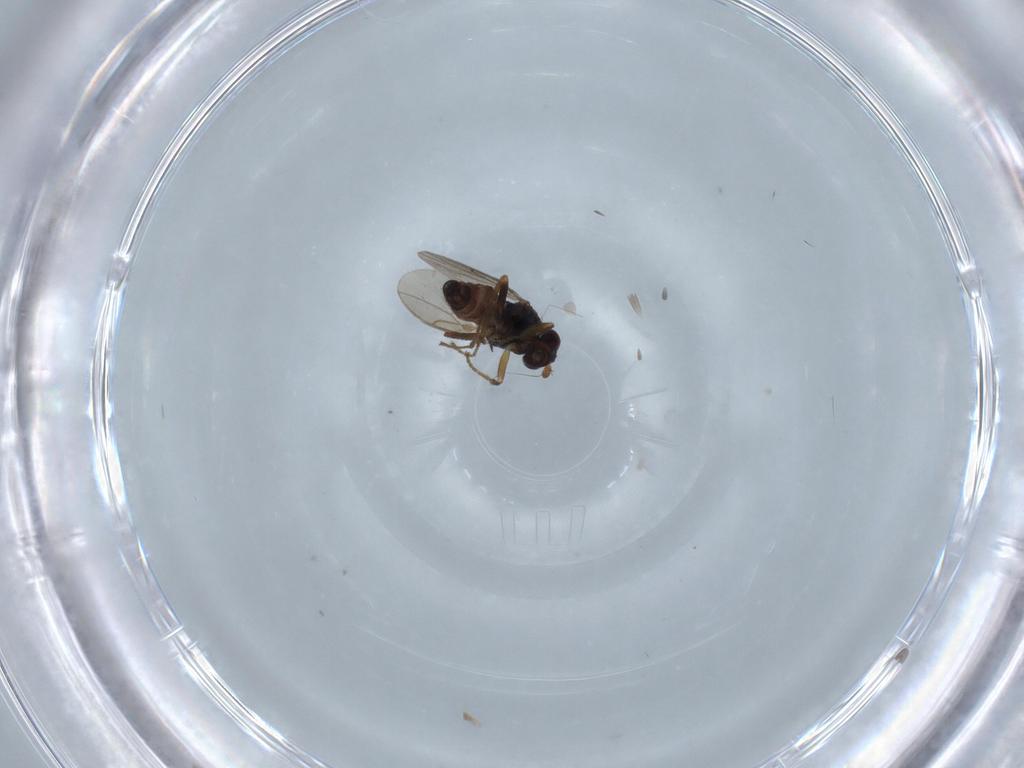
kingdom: Animalia
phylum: Arthropoda
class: Insecta
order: Diptera
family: Sphaeroceridae
